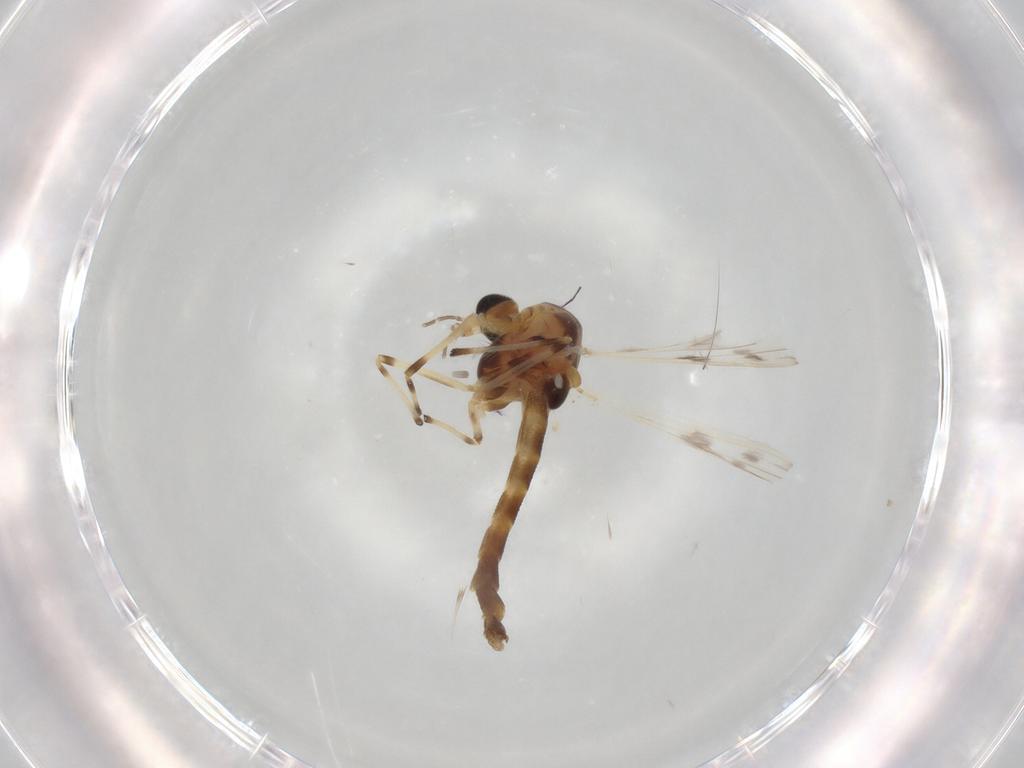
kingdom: Animalia
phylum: Arthropoda
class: Insecta
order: Diptera
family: Chironomidae
